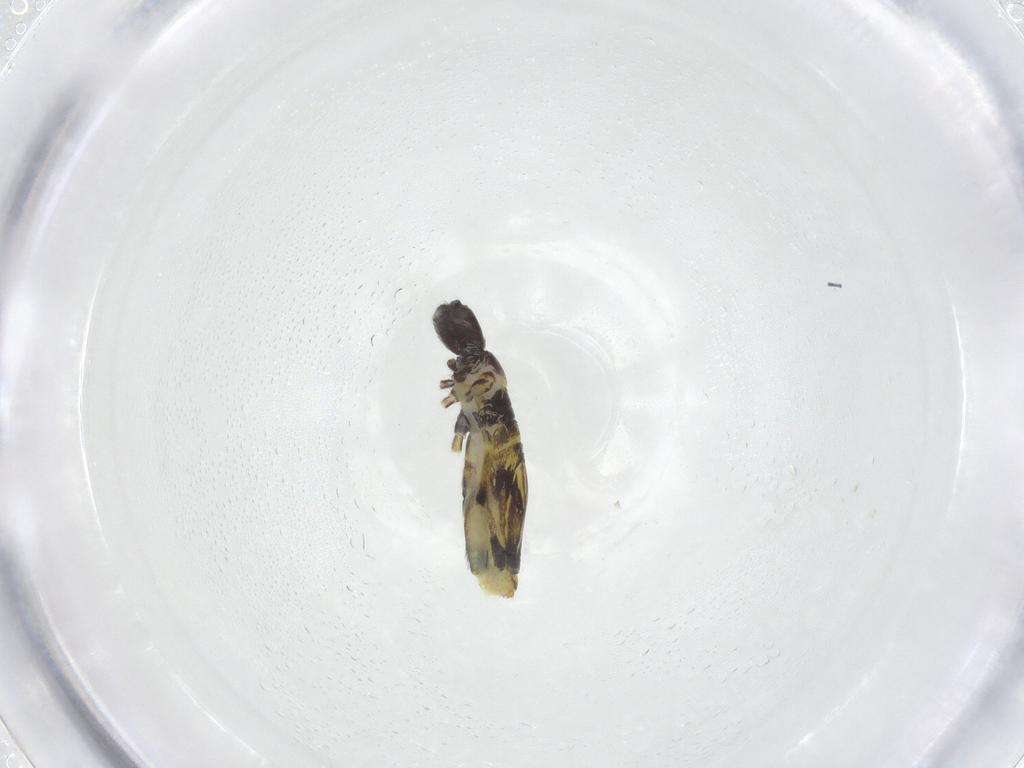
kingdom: Animalia
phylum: Arthropoda
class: Collembola
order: Entomobryomorpha
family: Entomobryidae
